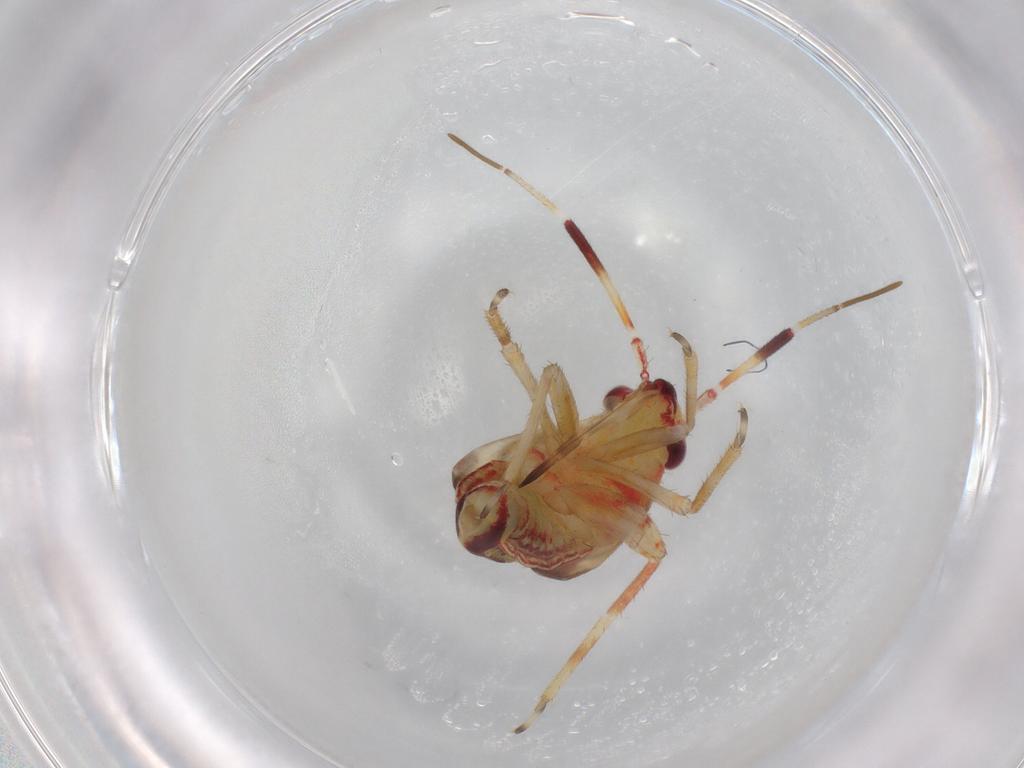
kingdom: Animalia
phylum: Arthropoda
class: Insecta
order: Hemiptera
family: Miridae
